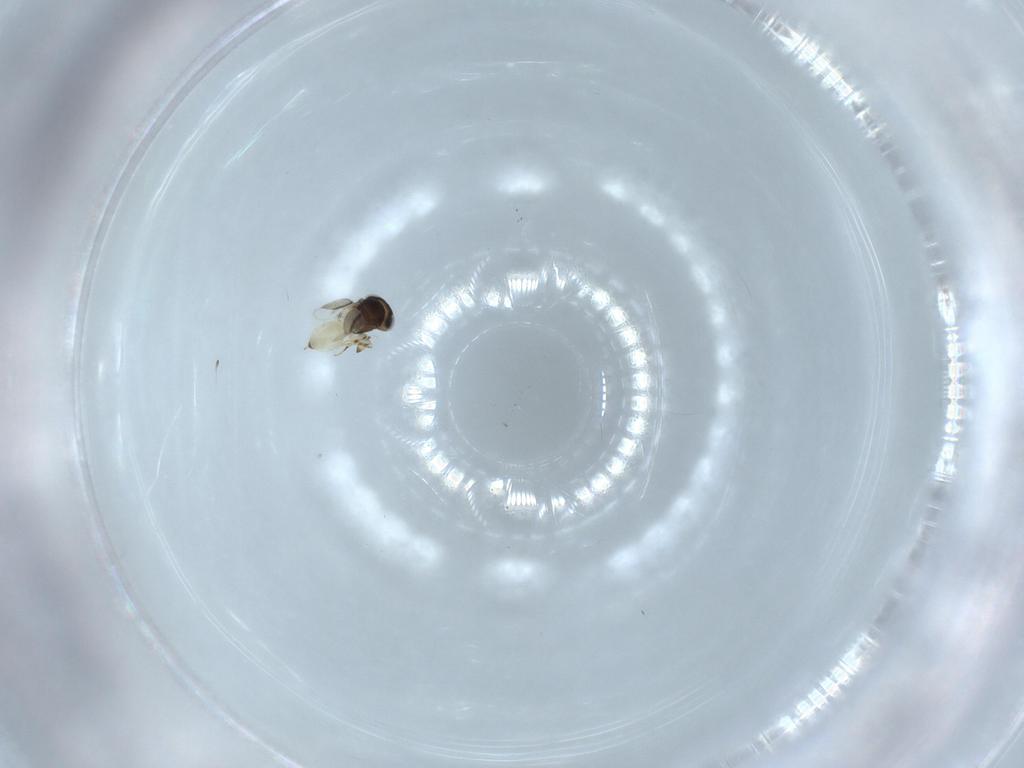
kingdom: Animalia
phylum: Arthropoda
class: Insecta
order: Hymenoptera
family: Scelionidae
